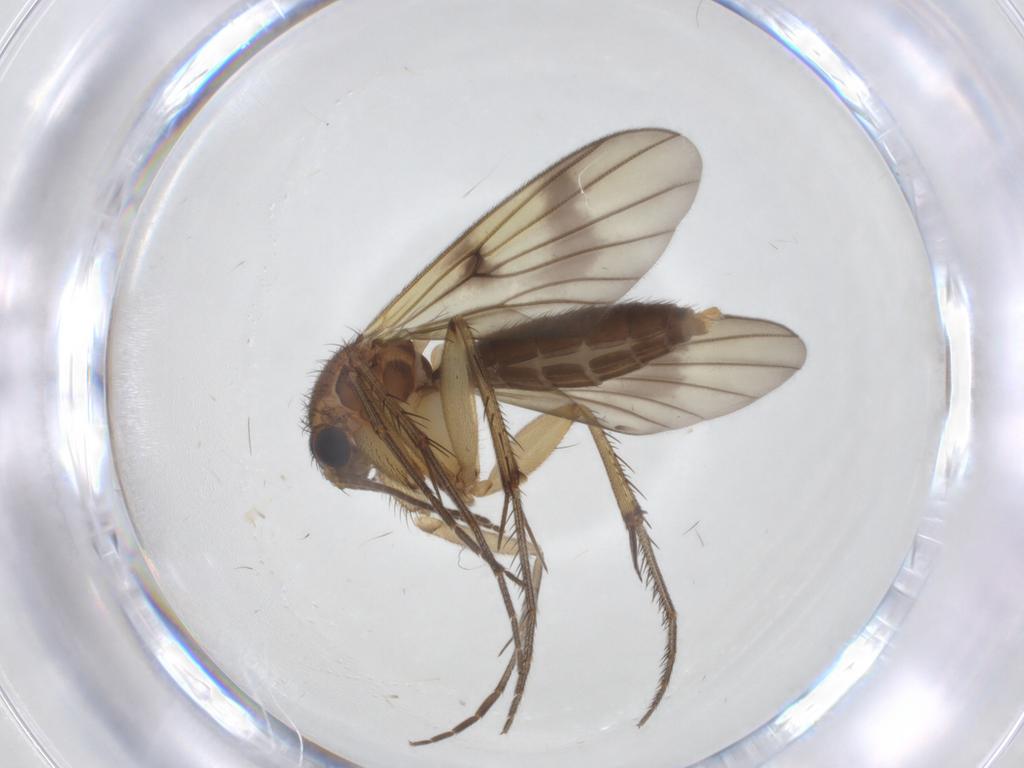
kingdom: Animalia
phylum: Arthropoda
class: Insecta
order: Diptera
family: Mycetophilidae
